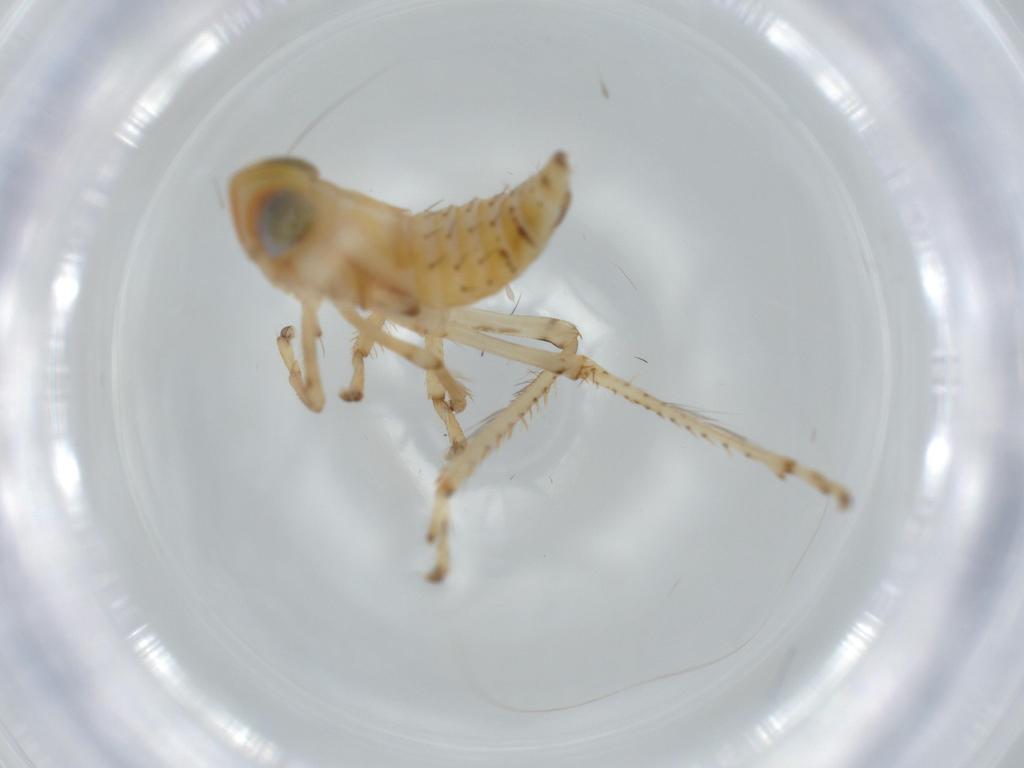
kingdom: Animalia
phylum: Arthropoda
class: Insecta
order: Hemiptera
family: Cicadellidae
